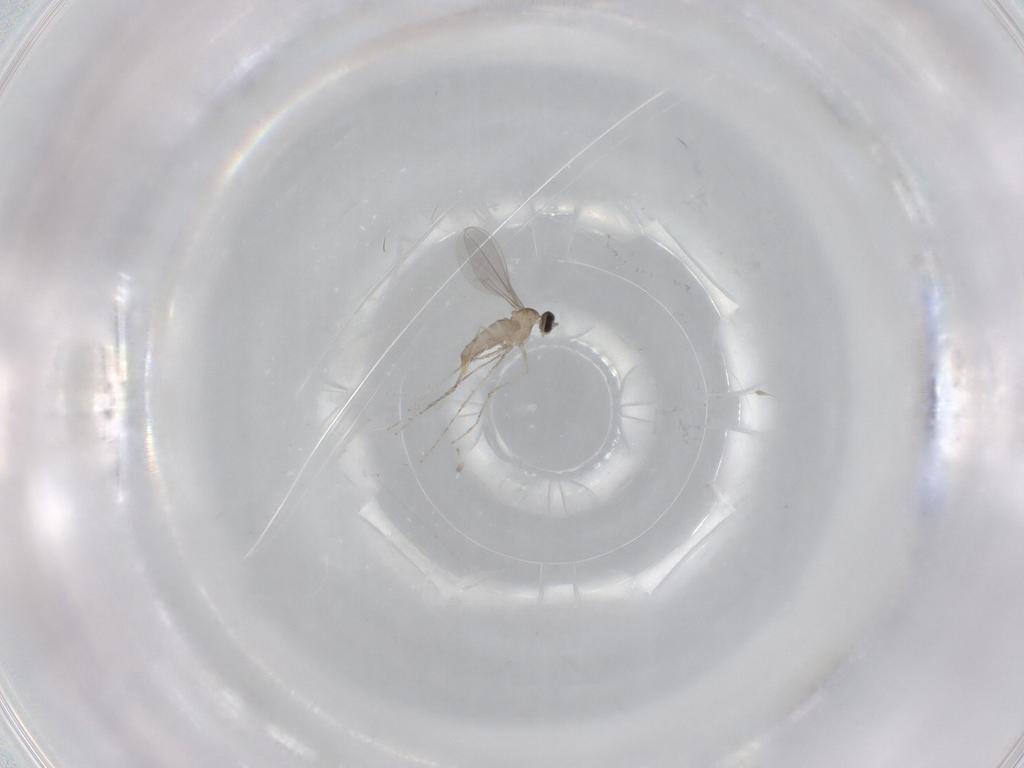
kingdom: Animalia
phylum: Arthropoda
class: Insecta
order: Diptera
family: Cecidomyiidae
